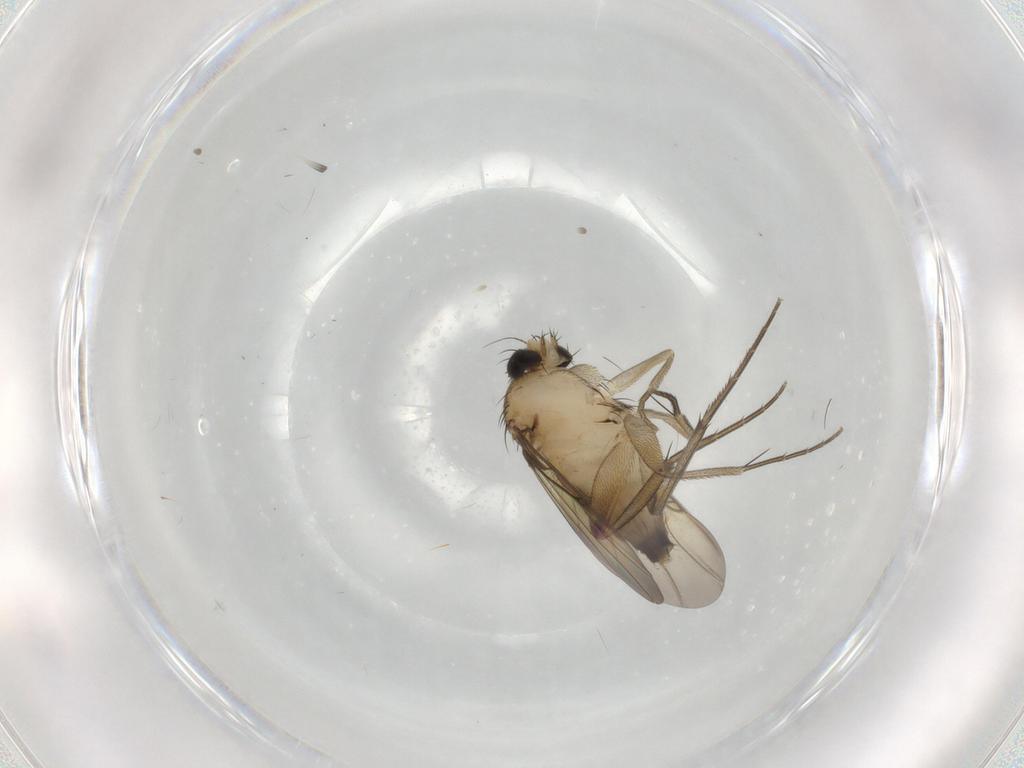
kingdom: Animalia
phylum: Arthropoda
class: Insecta
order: Diptera
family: Phoridae
